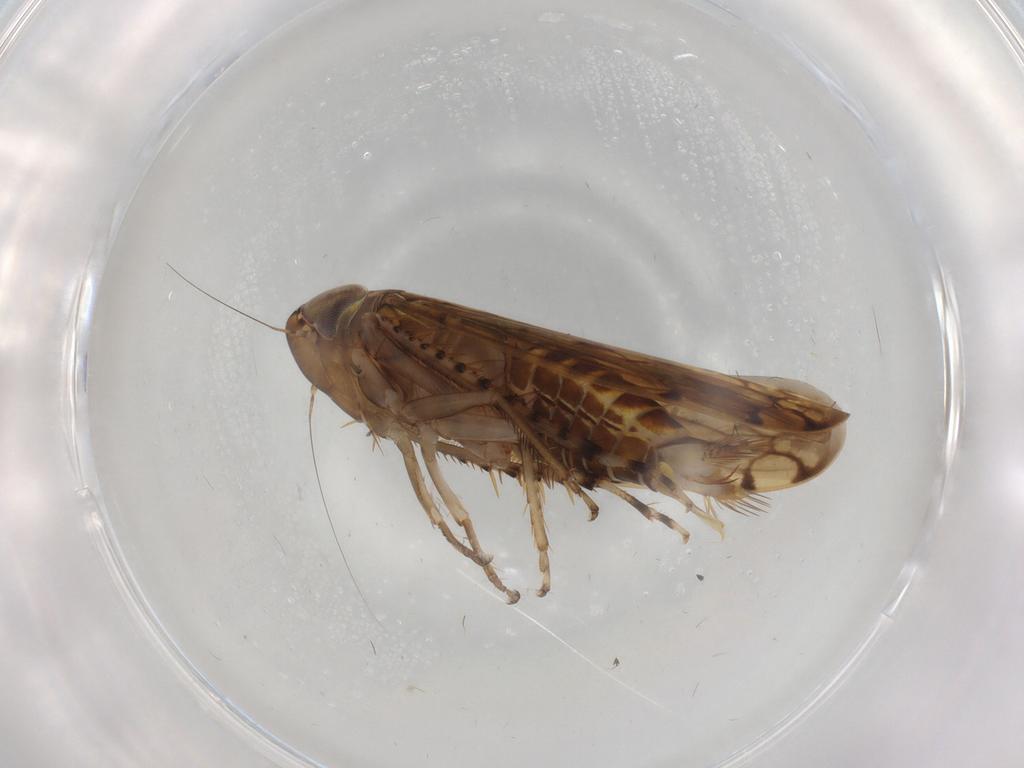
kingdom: Animalia
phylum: Arthropoda
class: Insecta
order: Hemiptera
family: Cicadellidae
